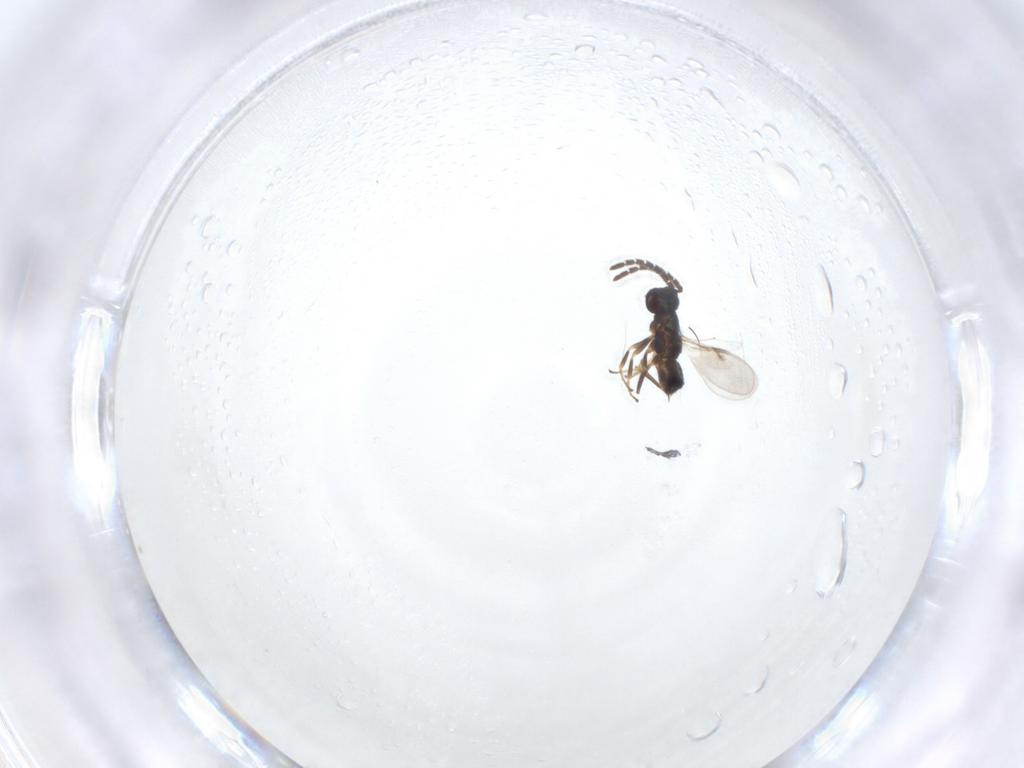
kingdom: Animalia
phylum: Arthropoda
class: Insecta
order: Hymenoptera
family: Encyrtidae
